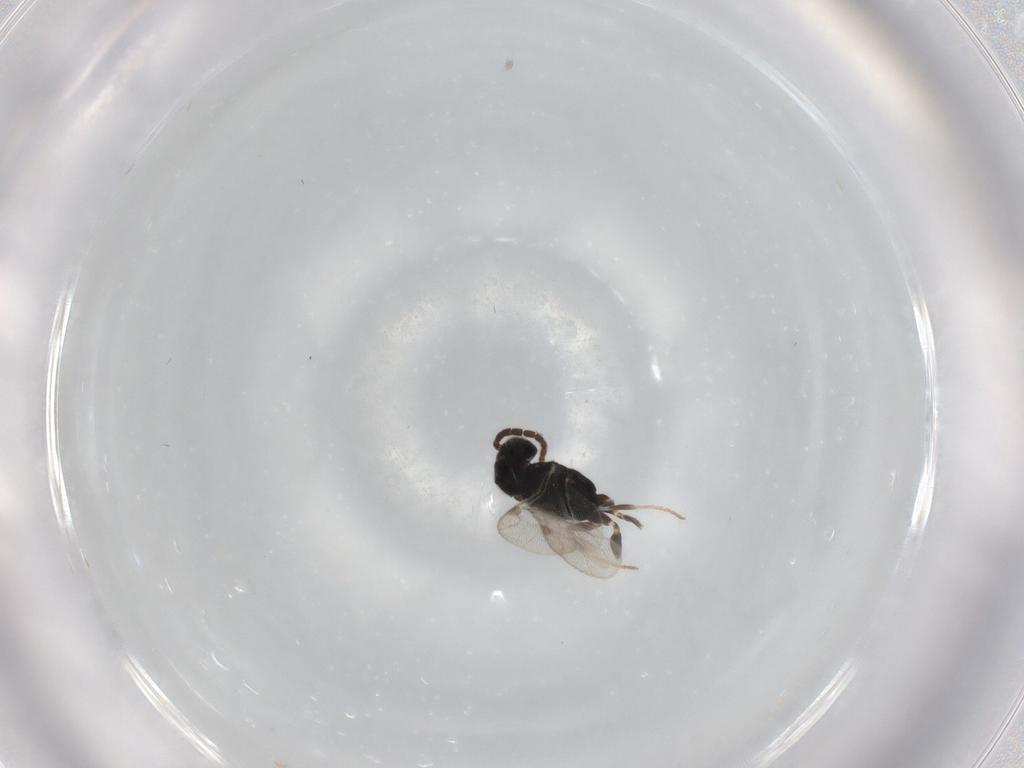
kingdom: Animalia
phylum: Arthropoda
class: Insecta
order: Hymenoptera
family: Dryinidae
